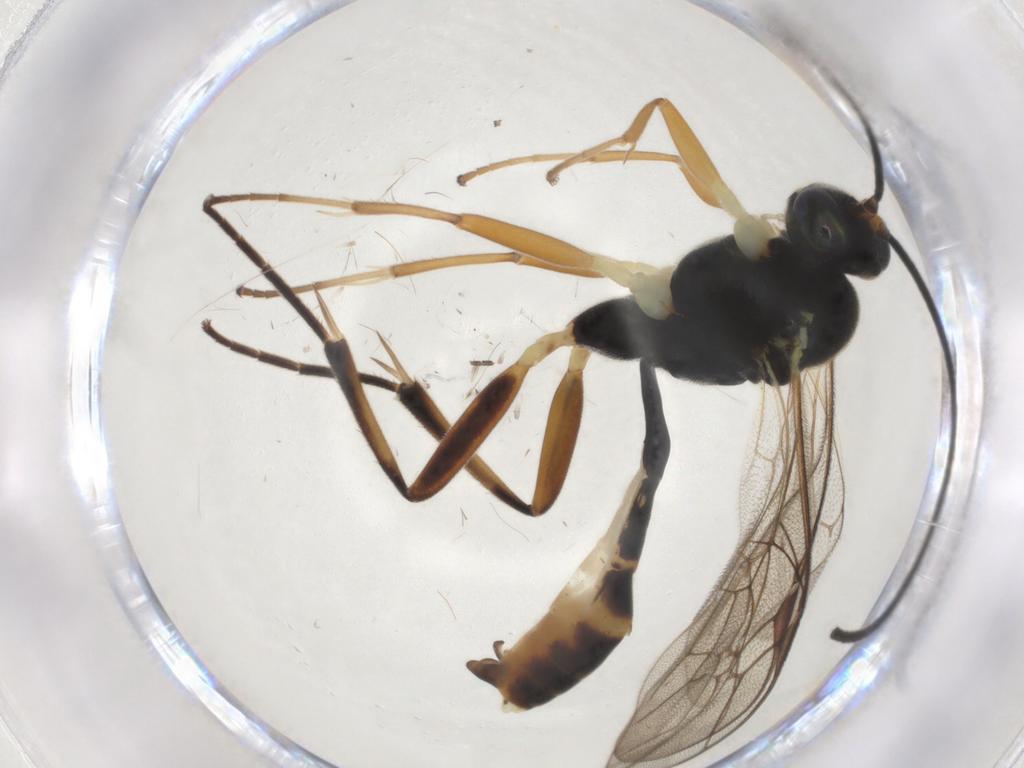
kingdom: Animalia
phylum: Arthropoda
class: Insecta
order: Hymenoptera
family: Ichneumonidae
